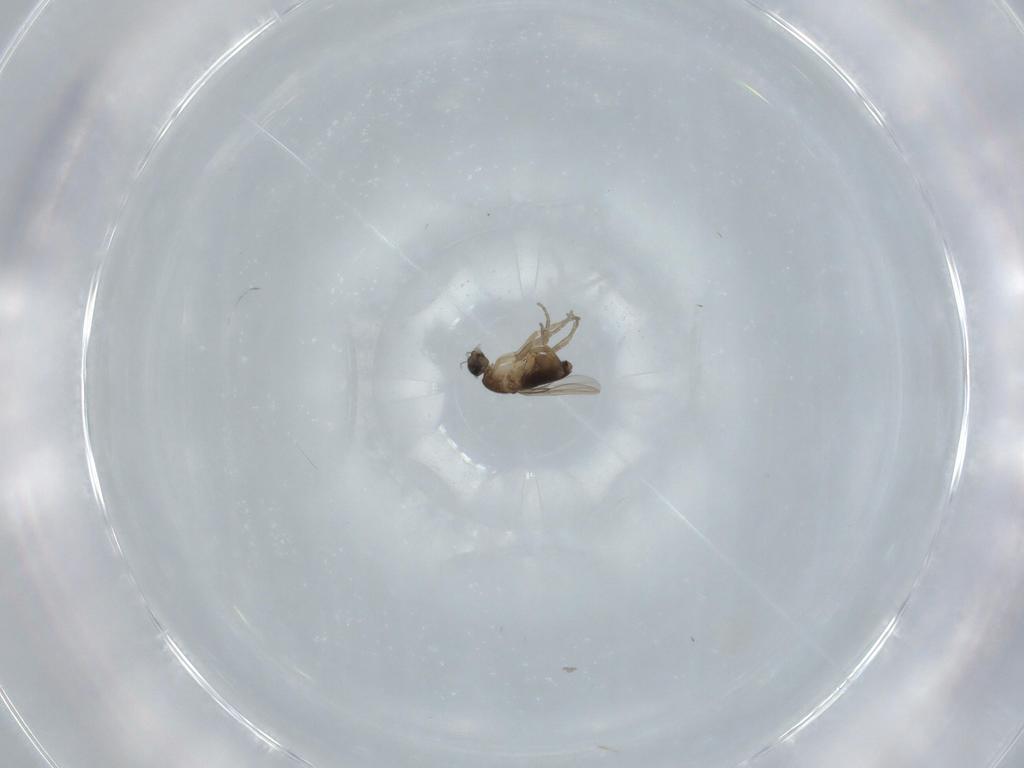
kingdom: Animalia
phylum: Arthropoda
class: Insecta
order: Diptera
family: Phoridae
